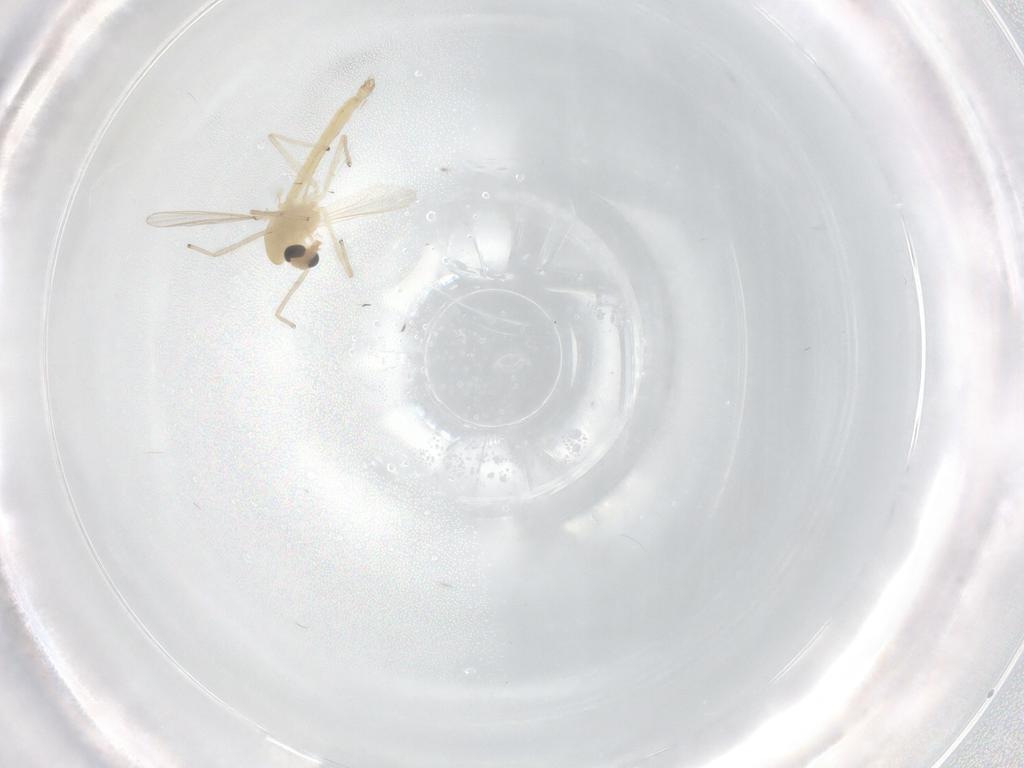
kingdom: Animalia
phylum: Arthropoda
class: Insecta
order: Diptera
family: Chironomidae
